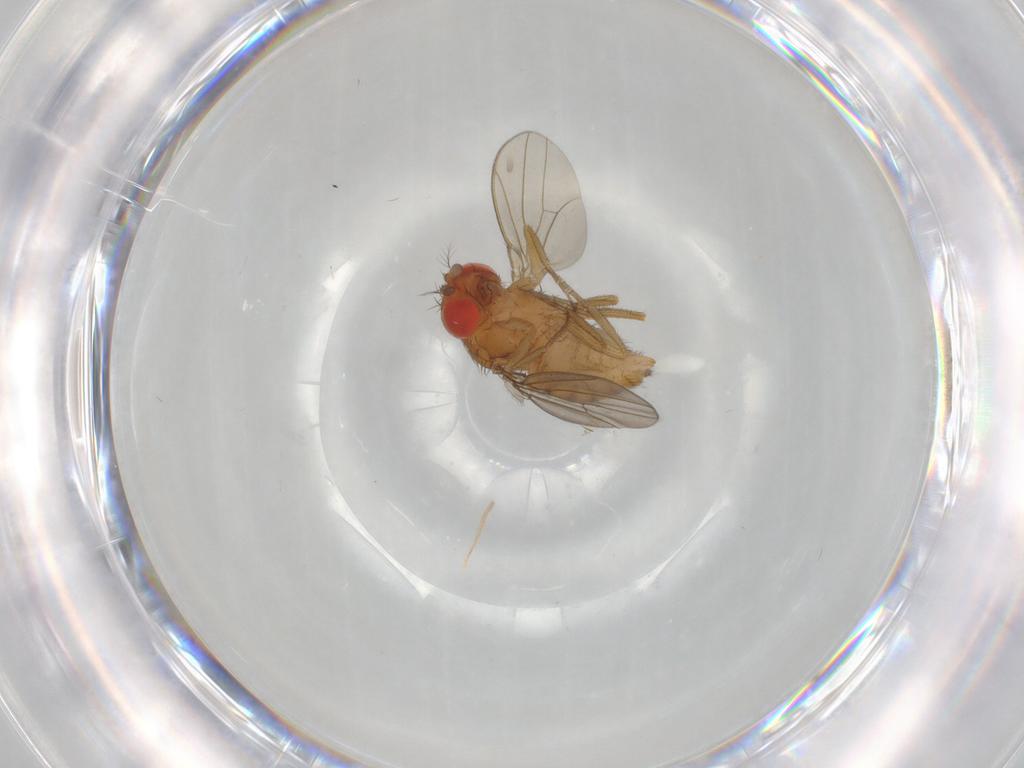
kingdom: Animalia
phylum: Arthropoda
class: Insecta
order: Diptera
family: Drosophilidae
